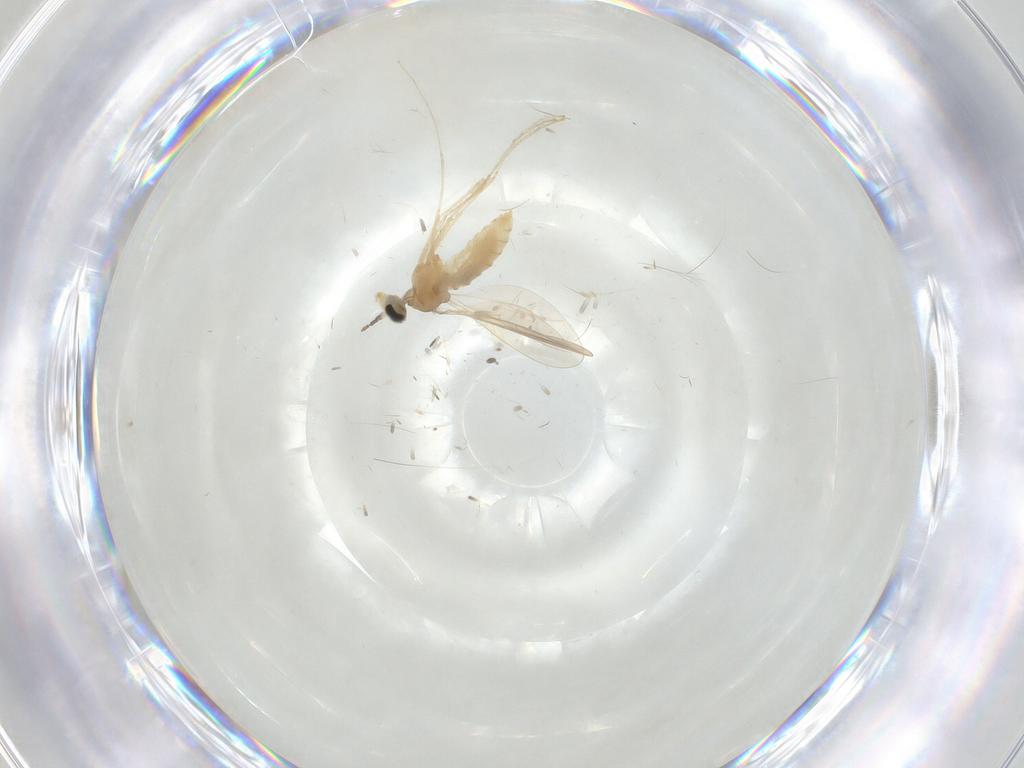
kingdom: Animalia
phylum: Arthropoda
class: Insecta
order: Diptera
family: Cecidomyiidae
